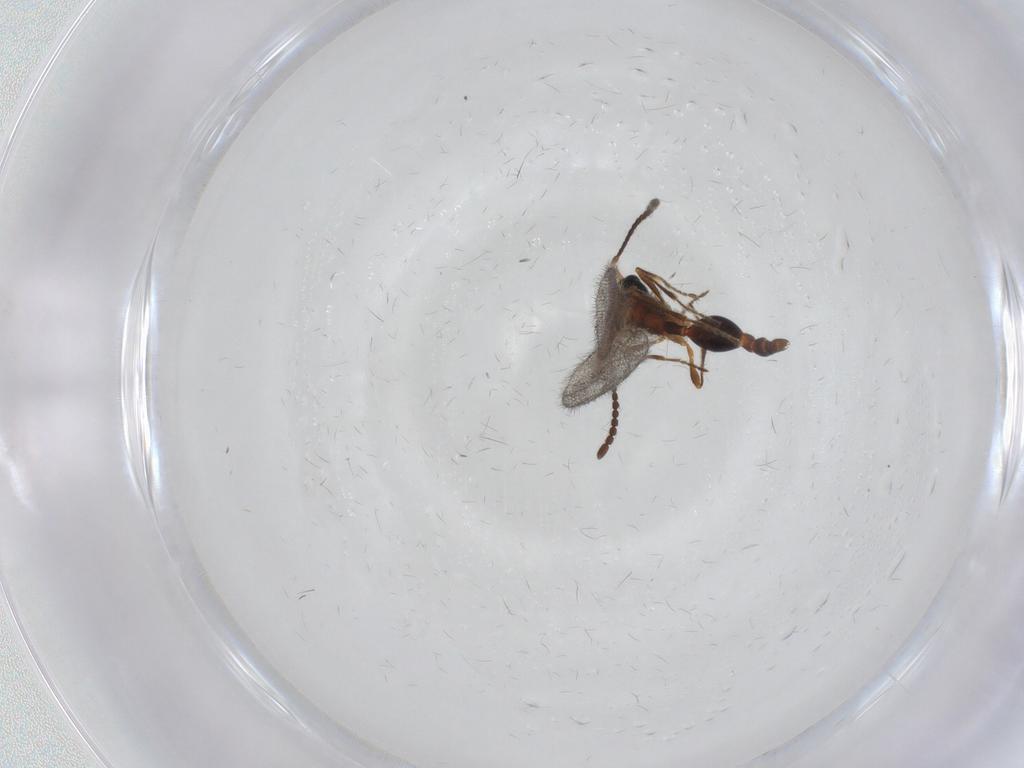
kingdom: Animalia
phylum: Arthropoda
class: Insecta
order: Hymenoptera
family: Diapriidae
